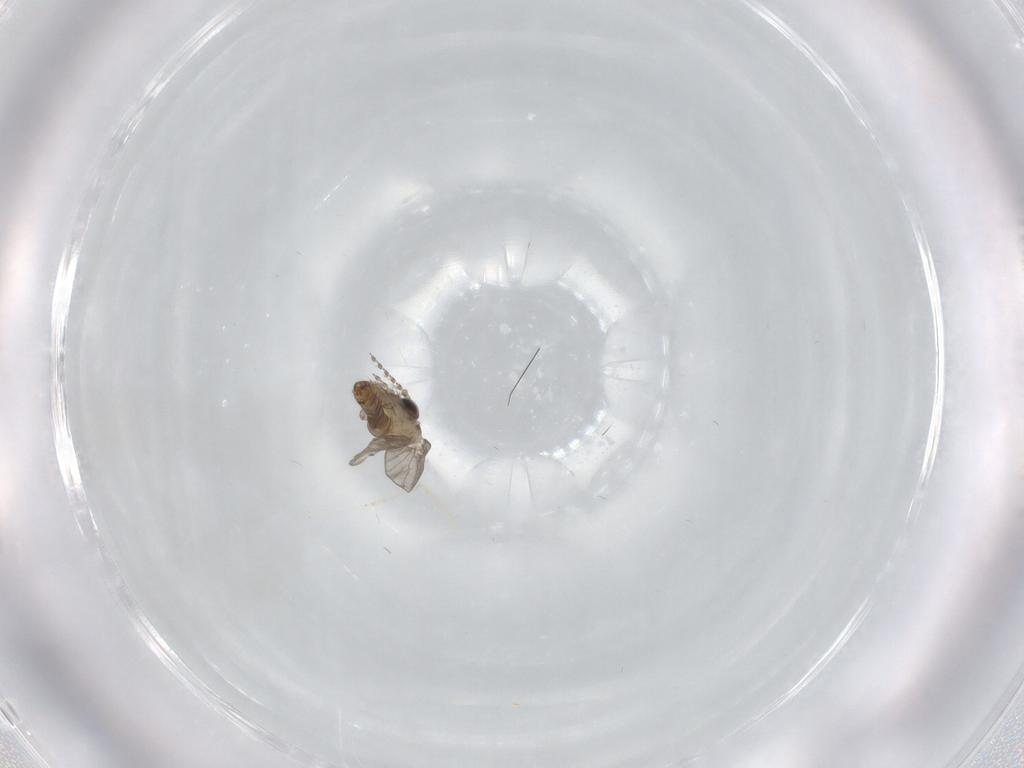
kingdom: Animalia
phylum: Arthropoda
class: Insecta
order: Diptera
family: Psychodidae
